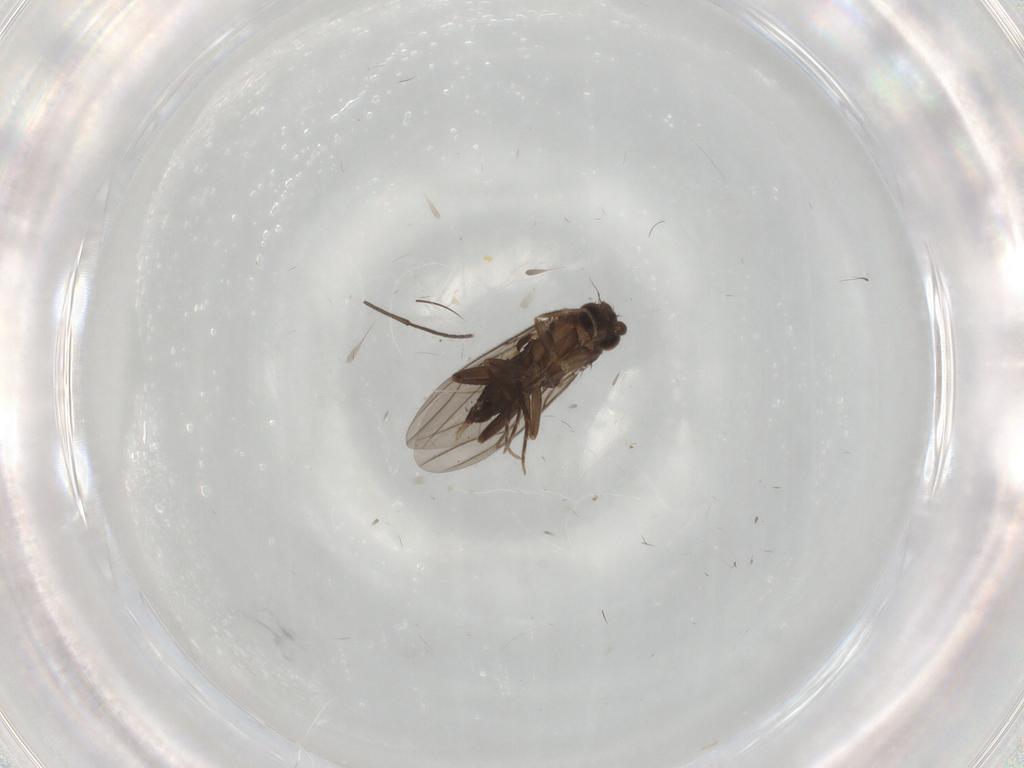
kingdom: Animalia
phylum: Arthropoda
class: Insecta
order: Diptera
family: Phoridae
